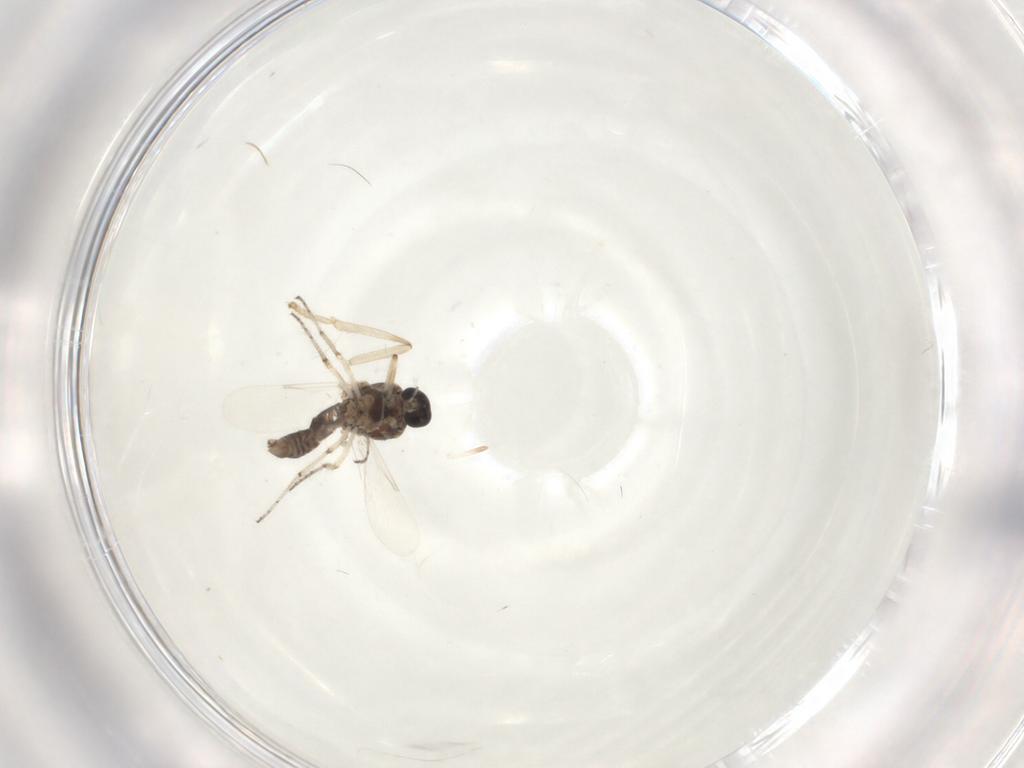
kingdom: Animalia
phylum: Arthropoda
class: Insecta
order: Diptera
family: Ceratopogonidae
